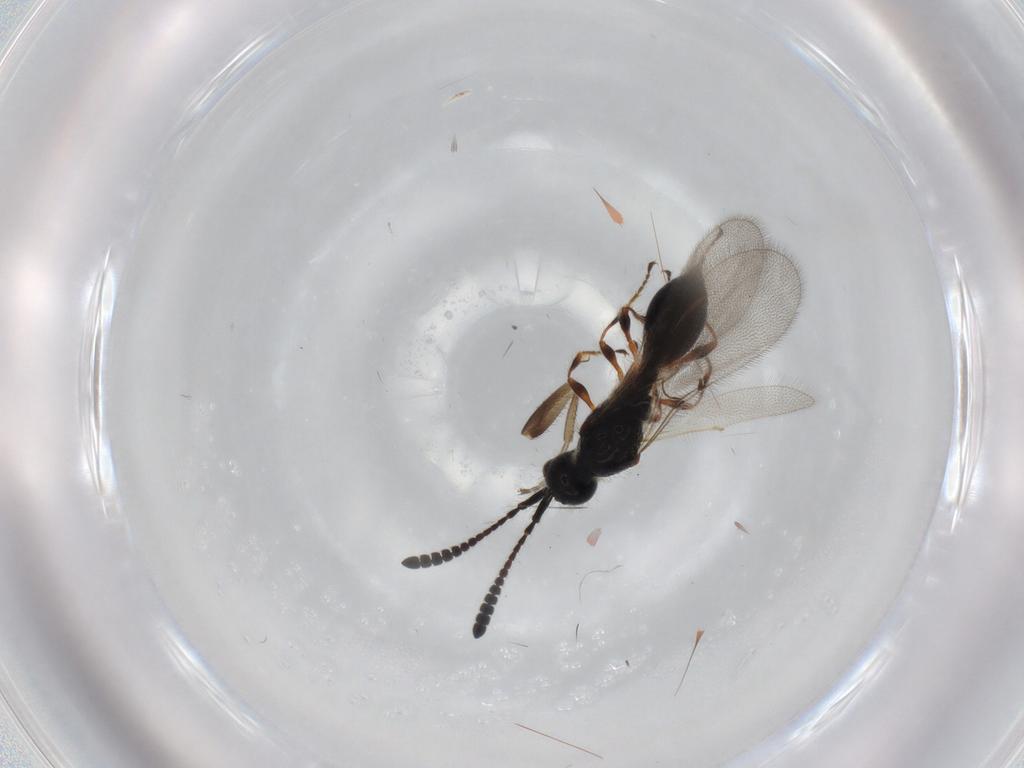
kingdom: Animalia
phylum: Arthropoda
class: Insecta
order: Hymenoptera
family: Diapriidae
